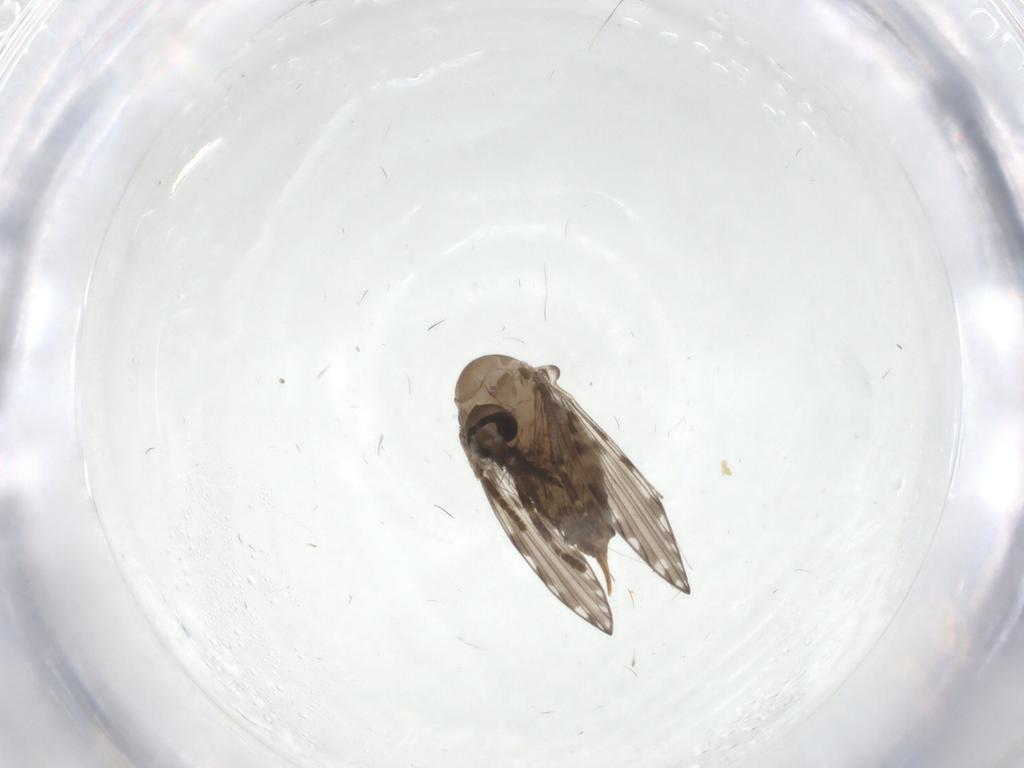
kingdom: Animalia
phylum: Arthropoda
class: Insecta
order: Diptera
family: Psychodidae
